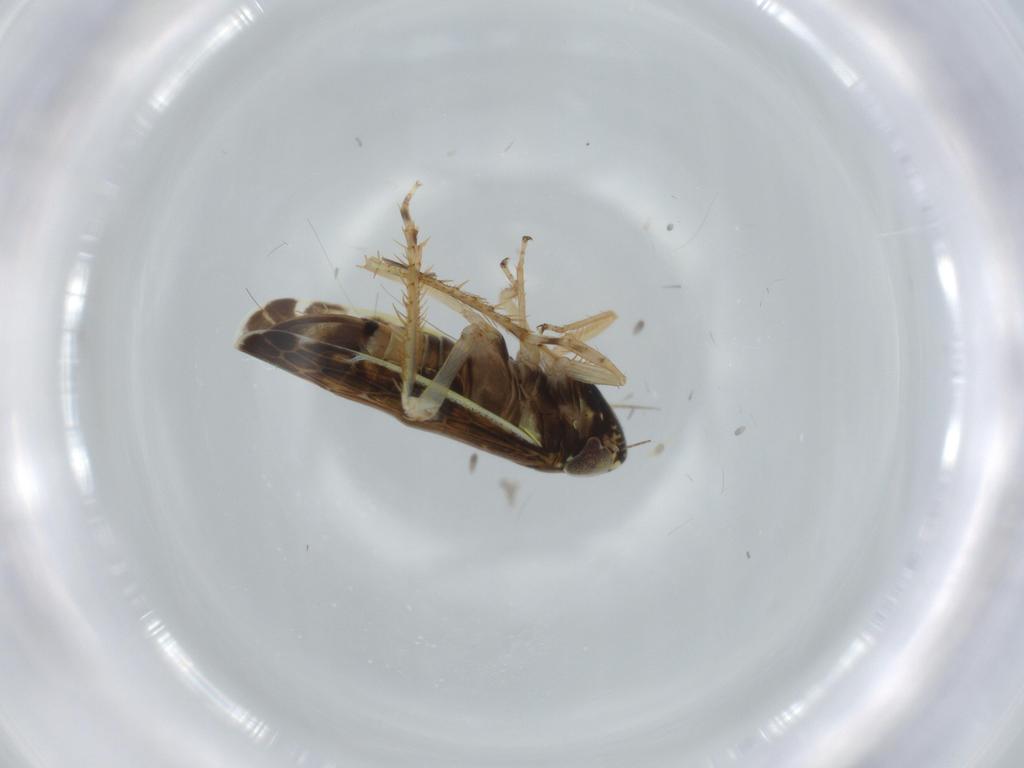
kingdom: Animalia
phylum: Arthropoda
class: Insecta
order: Hemiptera
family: Cicadellidae
